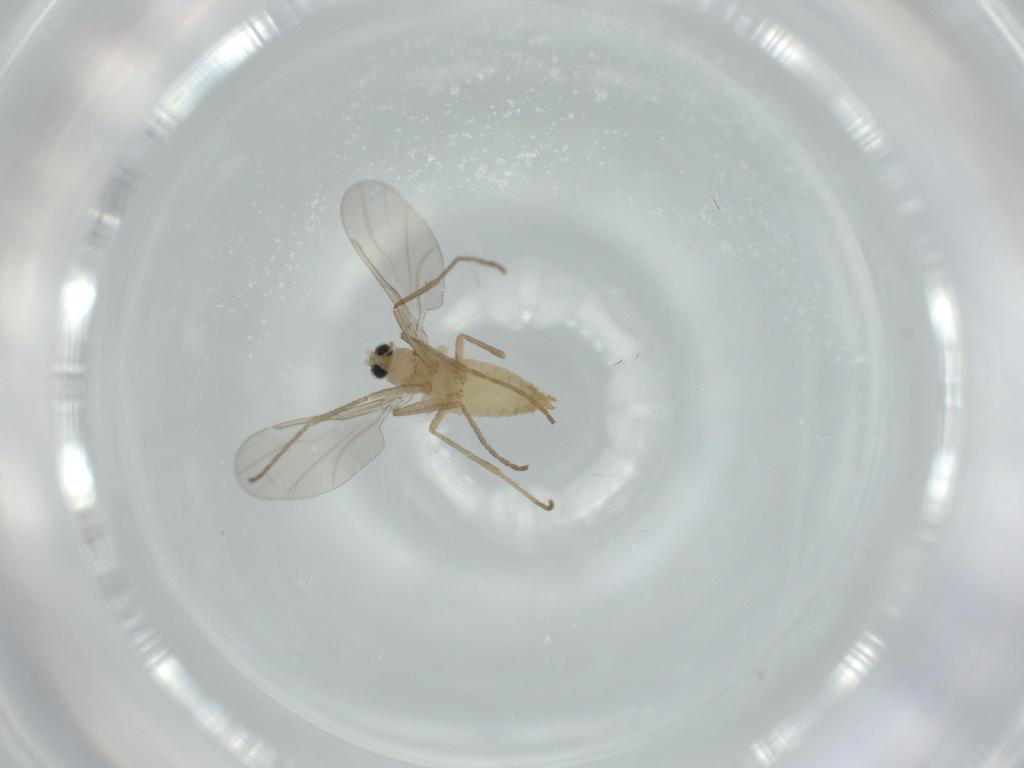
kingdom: Animalia
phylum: Arthropoda
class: Insecta
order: Diptera
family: Cecidomyiidae
